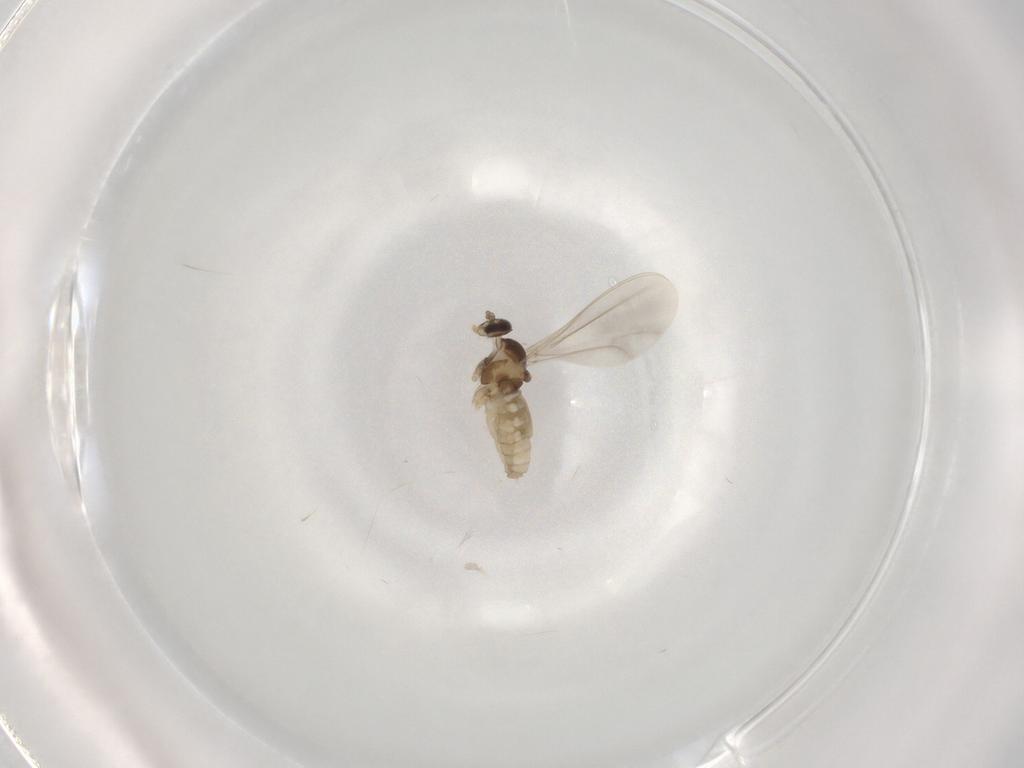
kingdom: Animalia
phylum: Arthropoda
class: Insecta
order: Diptera
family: Cecidomyiidae
